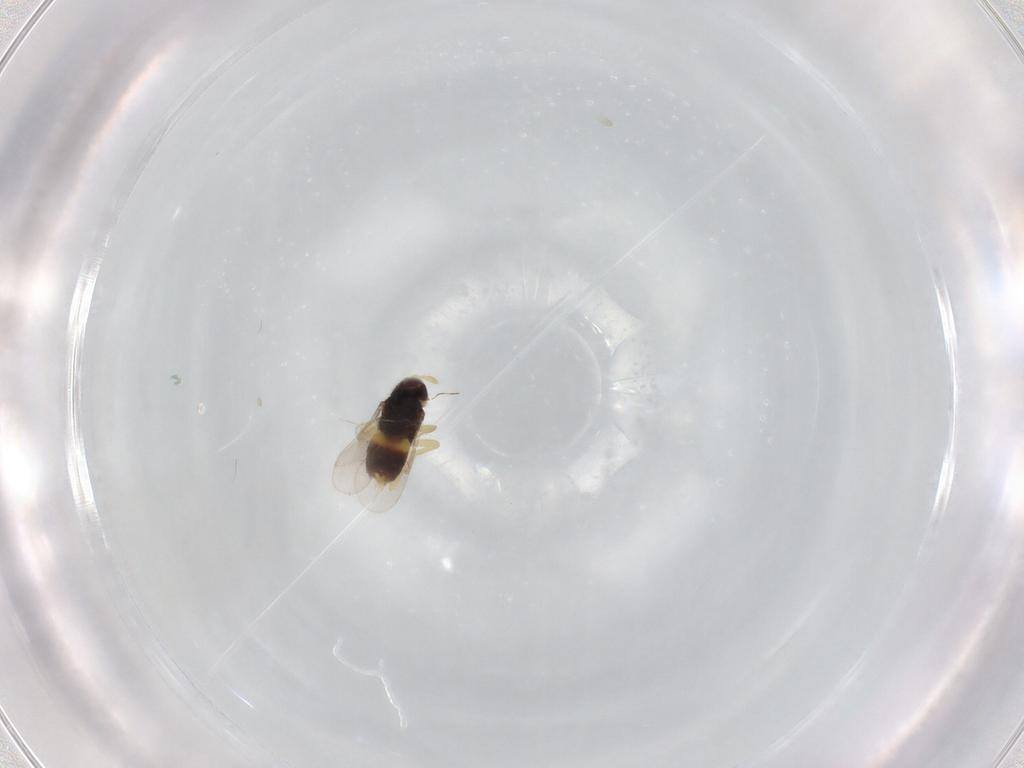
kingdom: Animalia
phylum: Arthropoda
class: Insecta
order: Hymenoptera
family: Aphelinidae
